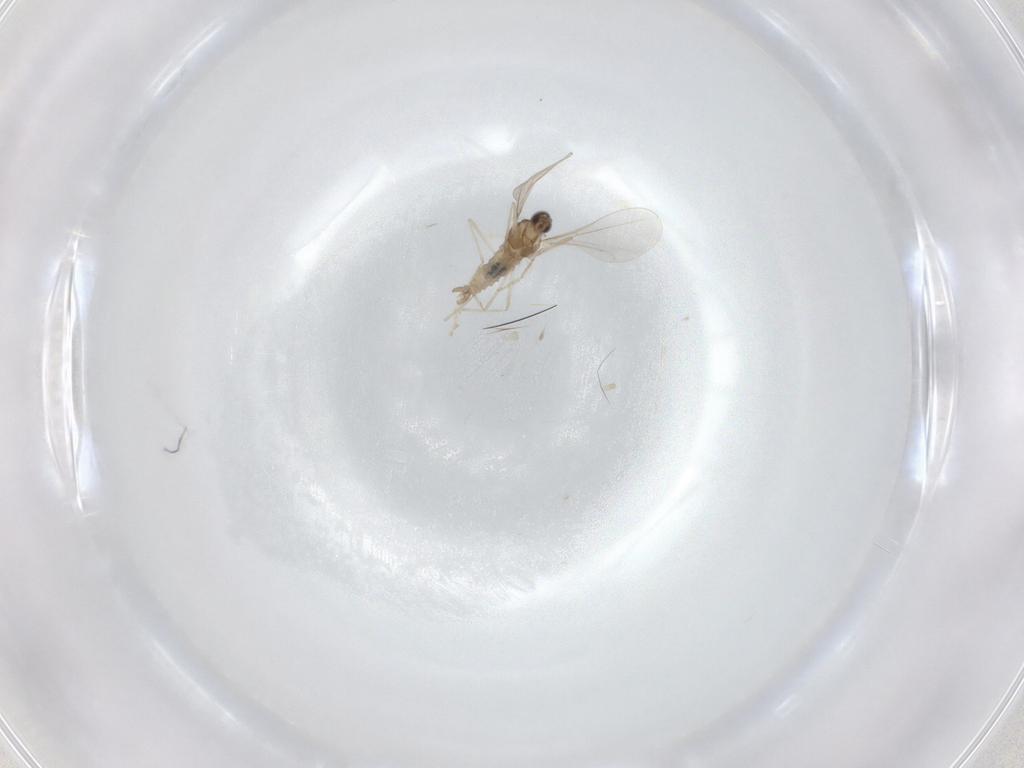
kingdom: Animalia
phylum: Arthropoda
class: Insecta
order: Diptera
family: Cecidomyiidae
